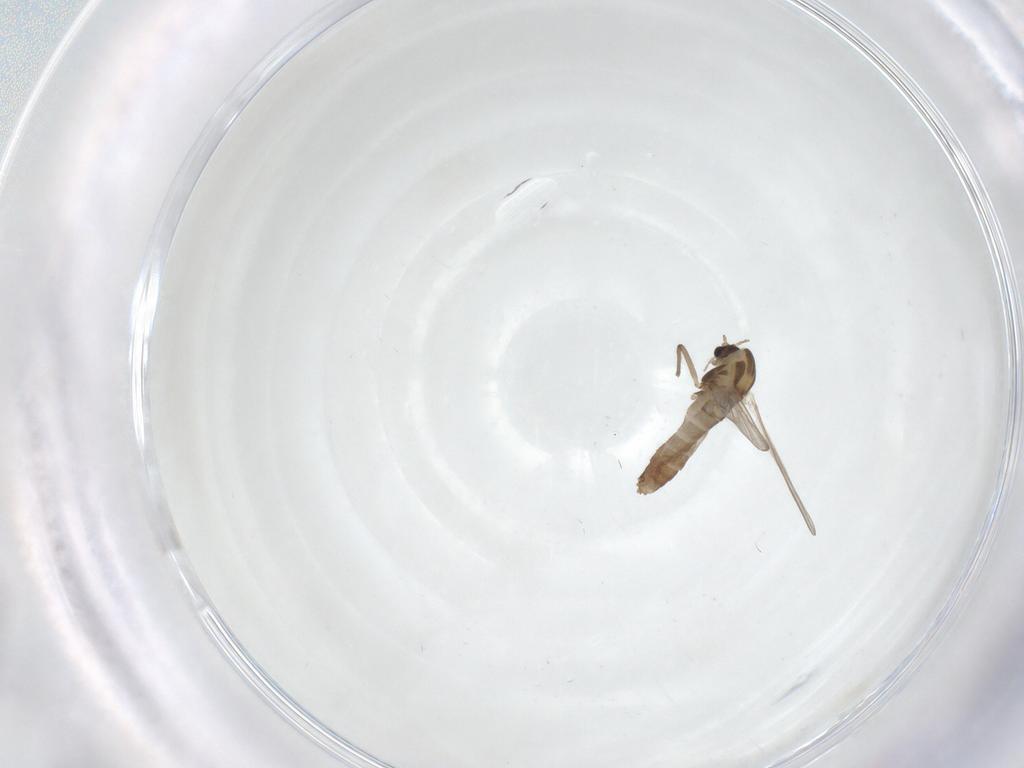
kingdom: Animalia
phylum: Arthropoda
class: Insecta
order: Diptera
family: Chironomidae
